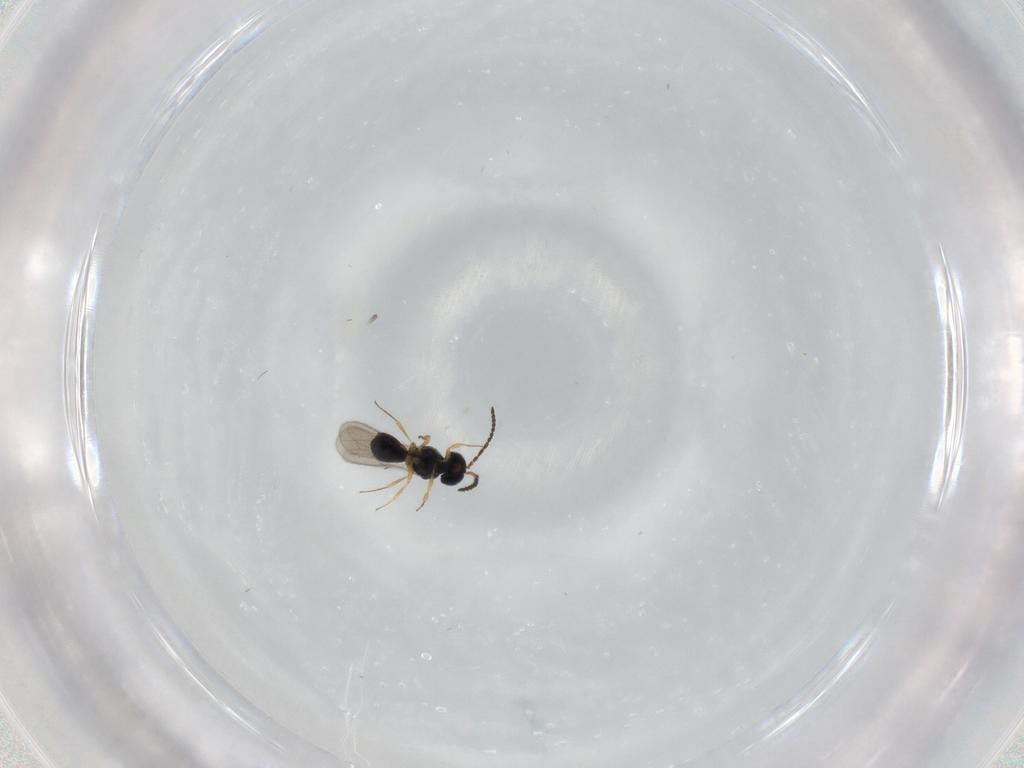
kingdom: Animalia
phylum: Arthropoda
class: Insecta
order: Hymenoptera
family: Scelionidae
